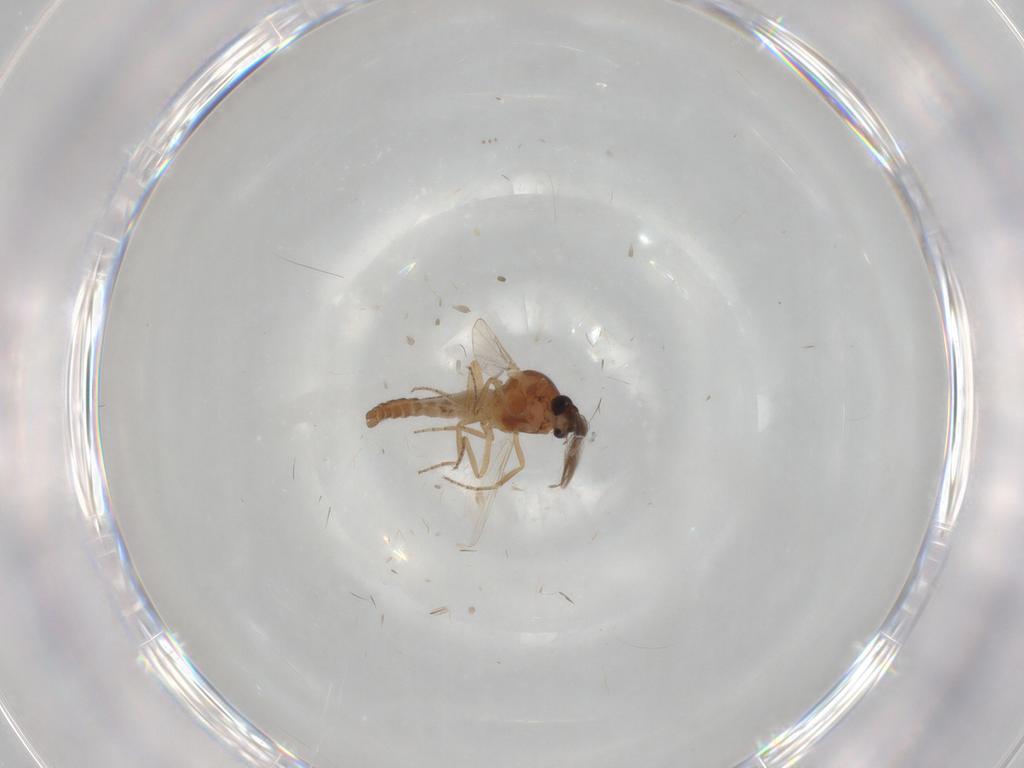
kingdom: Animalia
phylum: Arthropoda
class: Insecta
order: Diptera
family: Ceratopogonidae
